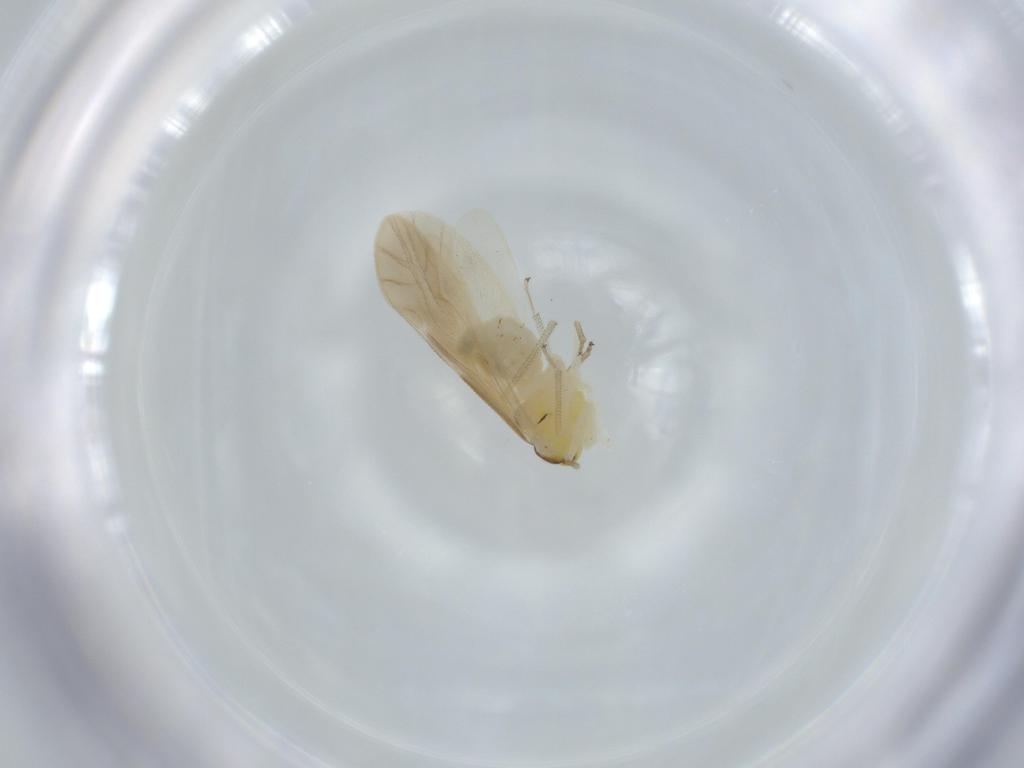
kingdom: Animalia
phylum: Arthropoda
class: Insecta
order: Psocodea
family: Caeciliusidae
